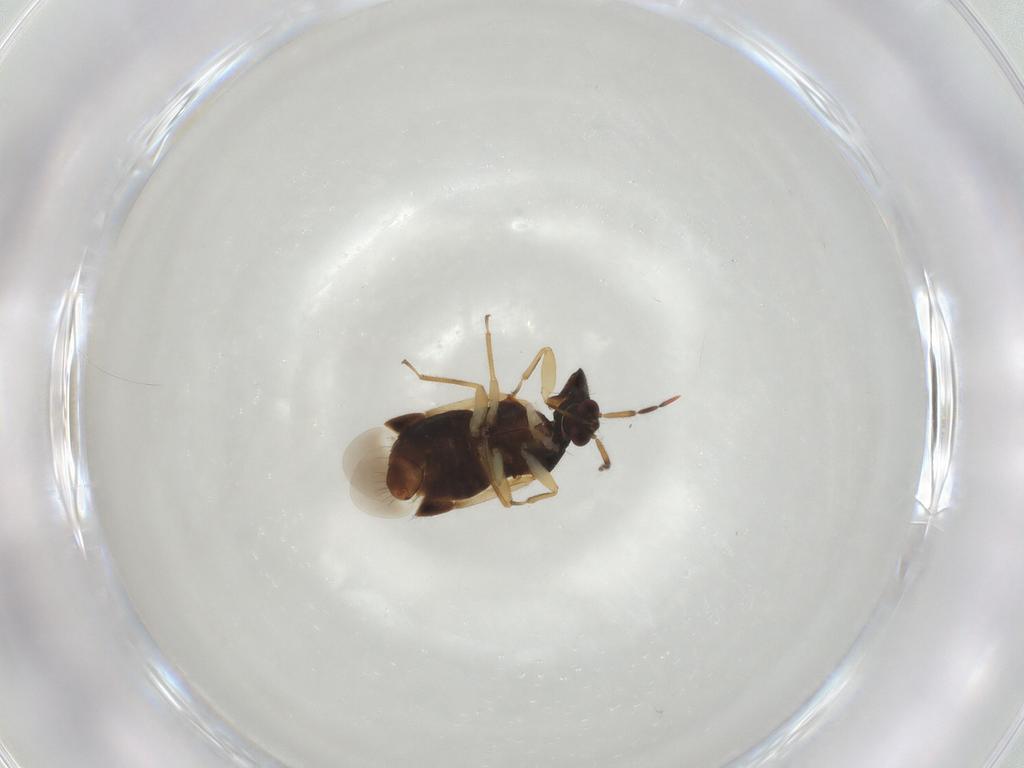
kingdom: Animalia
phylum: Arthropoda
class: Insecta
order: Hemiptera
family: Anthocoridae
